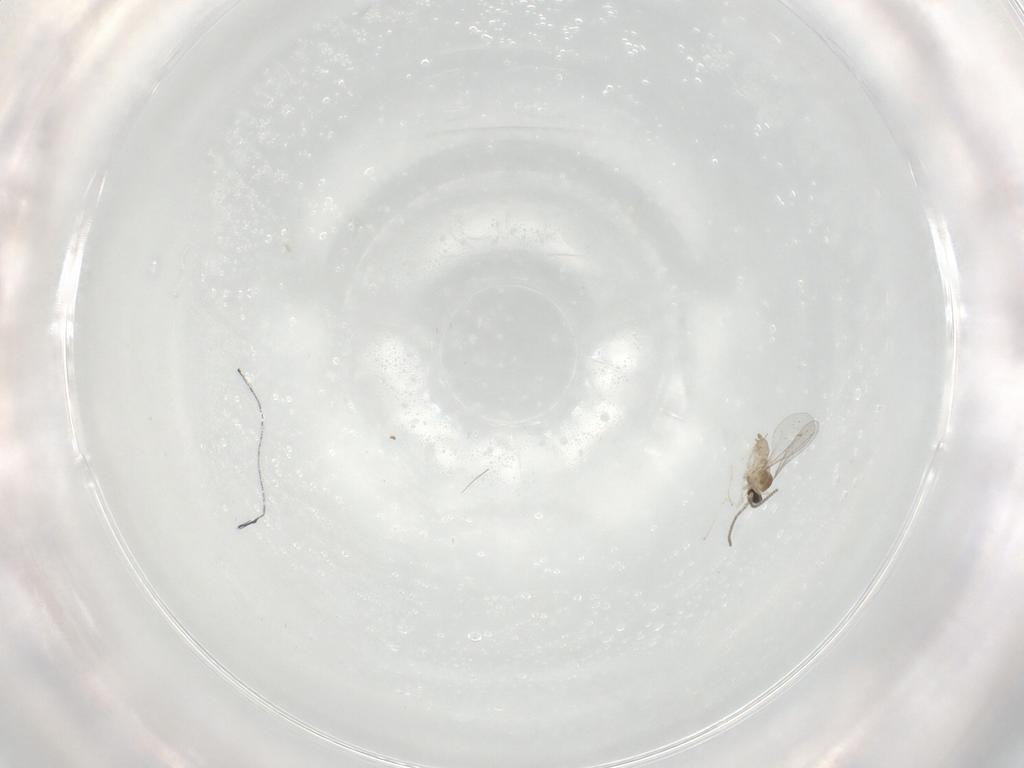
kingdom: Animalia
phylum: Arthropoda
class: Insecta
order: Diptera
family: Cecidomyiidae
